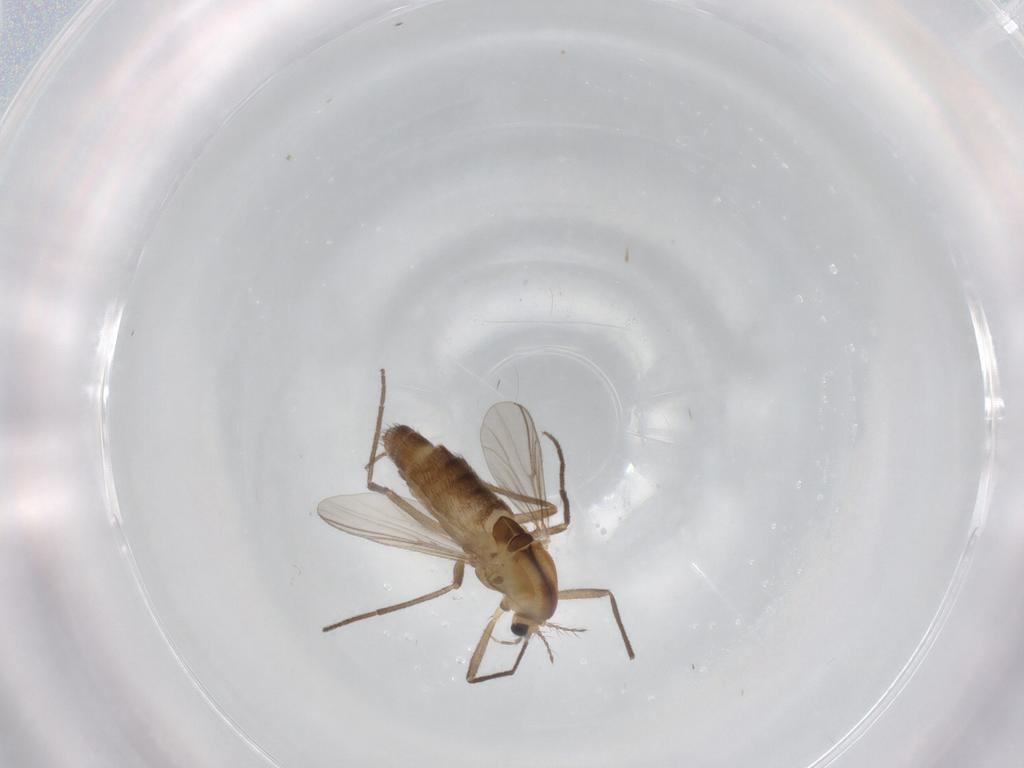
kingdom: Animalia
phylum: Arthropoda
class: Insecta
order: Diptera
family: Chironomidae
